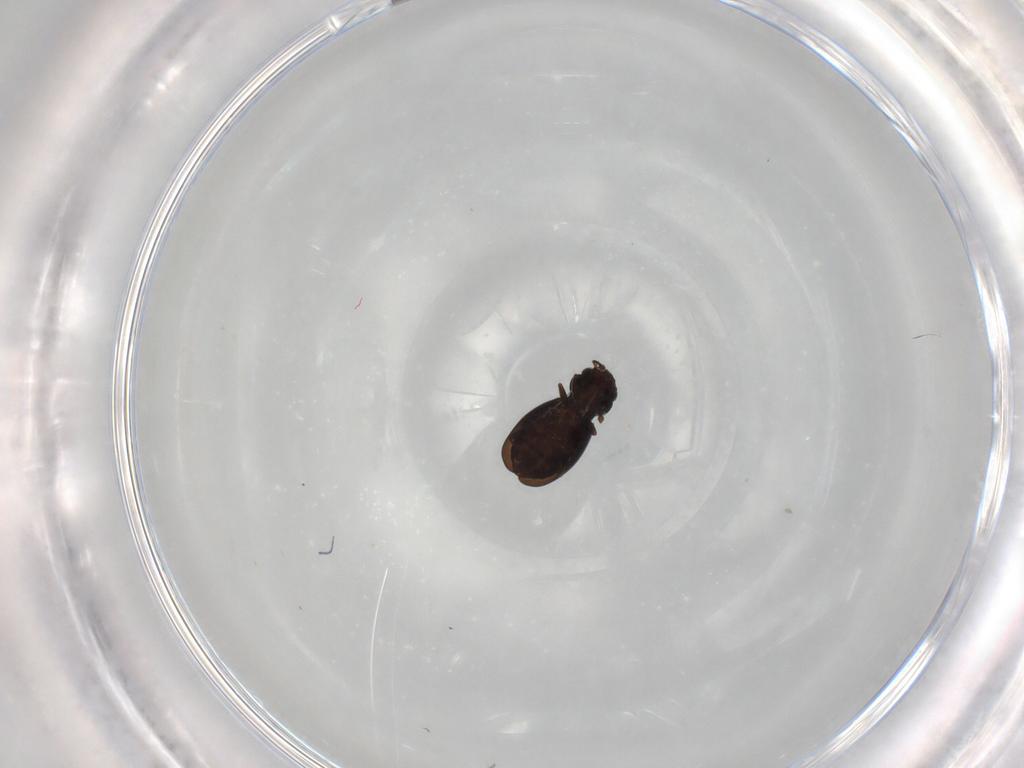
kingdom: Animalia
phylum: Arthropoda
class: Insecta
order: Coleoptera
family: Salpingidae
